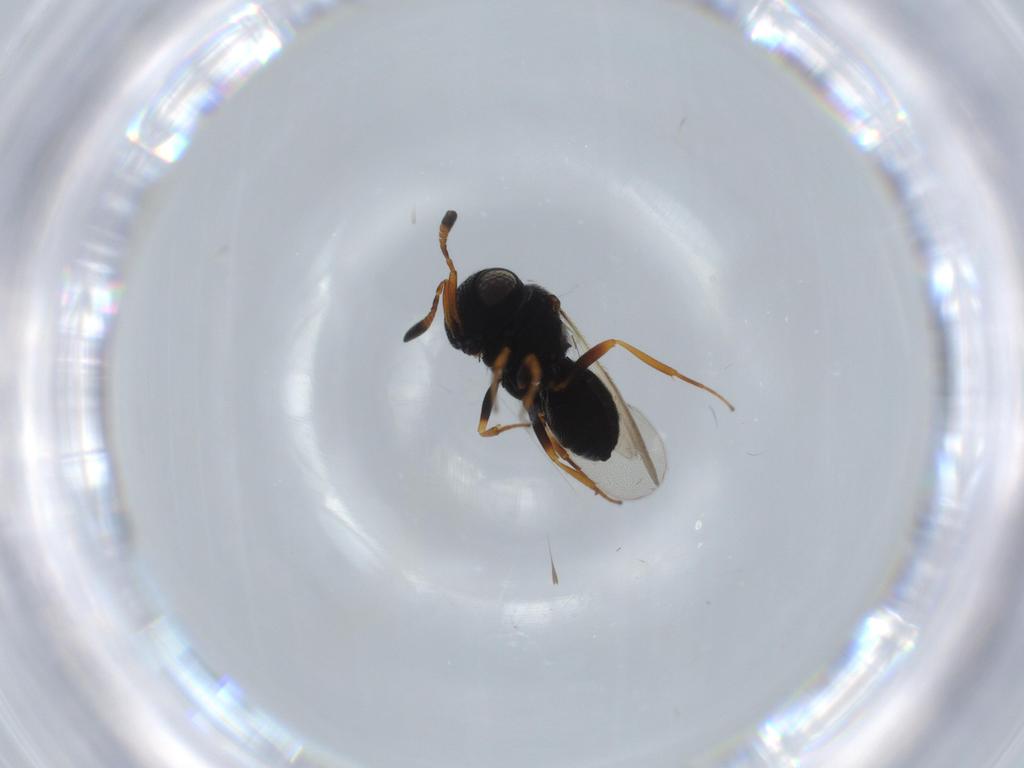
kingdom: Animalia
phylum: Arthropoda
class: Insecta
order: Hymenoptera
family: Scelionidae
